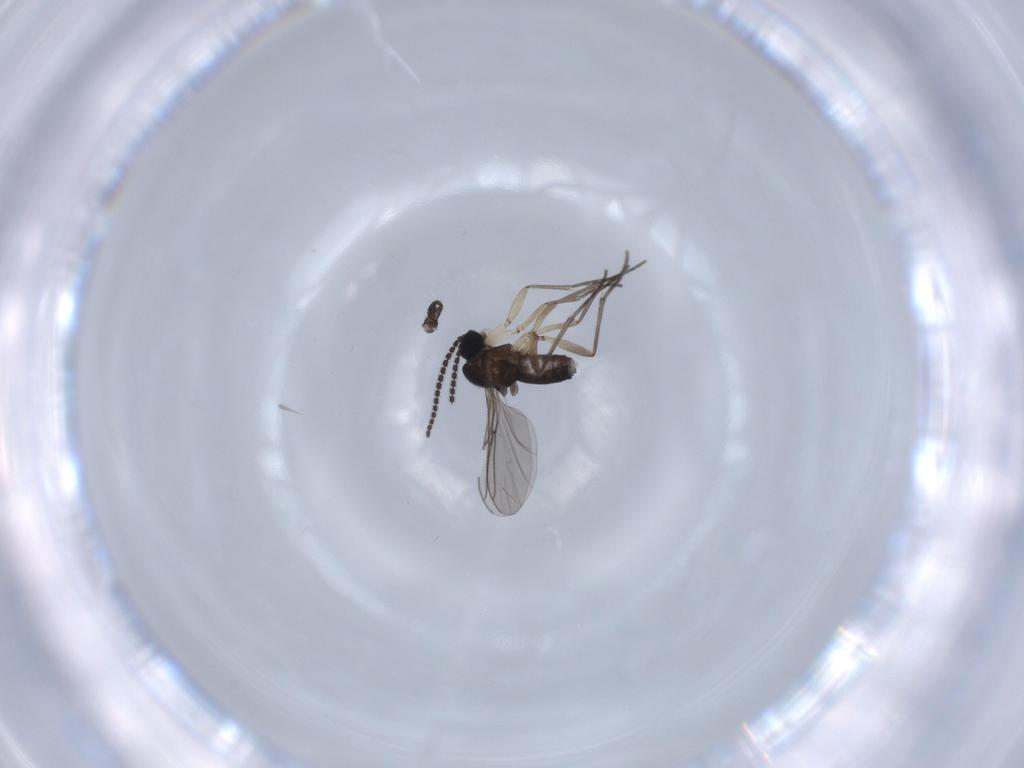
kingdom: Animalia
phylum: Arthropoda
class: Insecta
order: Diptera
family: Sciaridae
